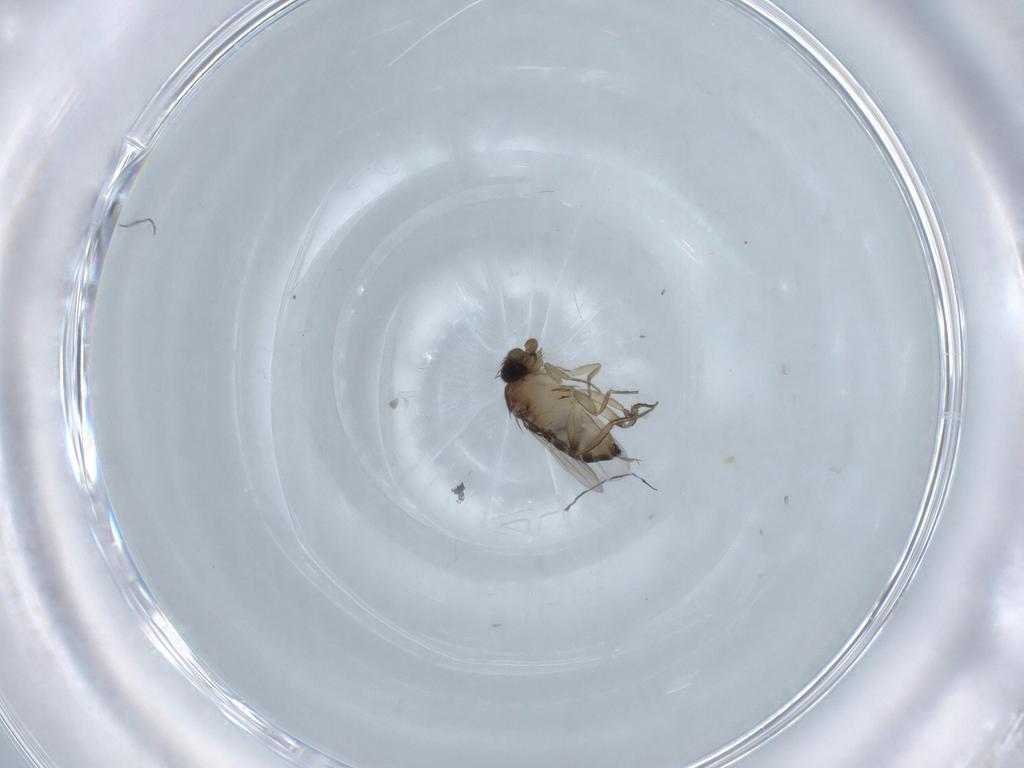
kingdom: Animalia
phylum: Arthropoda
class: Insecta
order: Diptera
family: Phoridae
